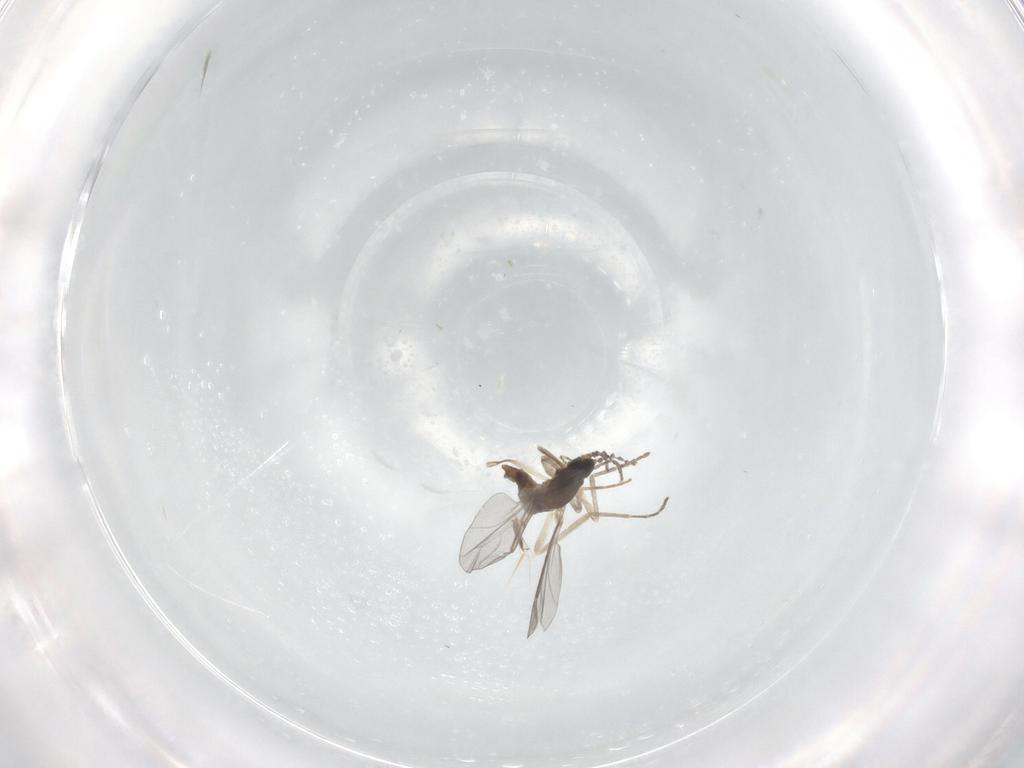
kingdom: Animalia
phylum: Arthropoda
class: Insecta
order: Diptera
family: Cecidomyiidae
